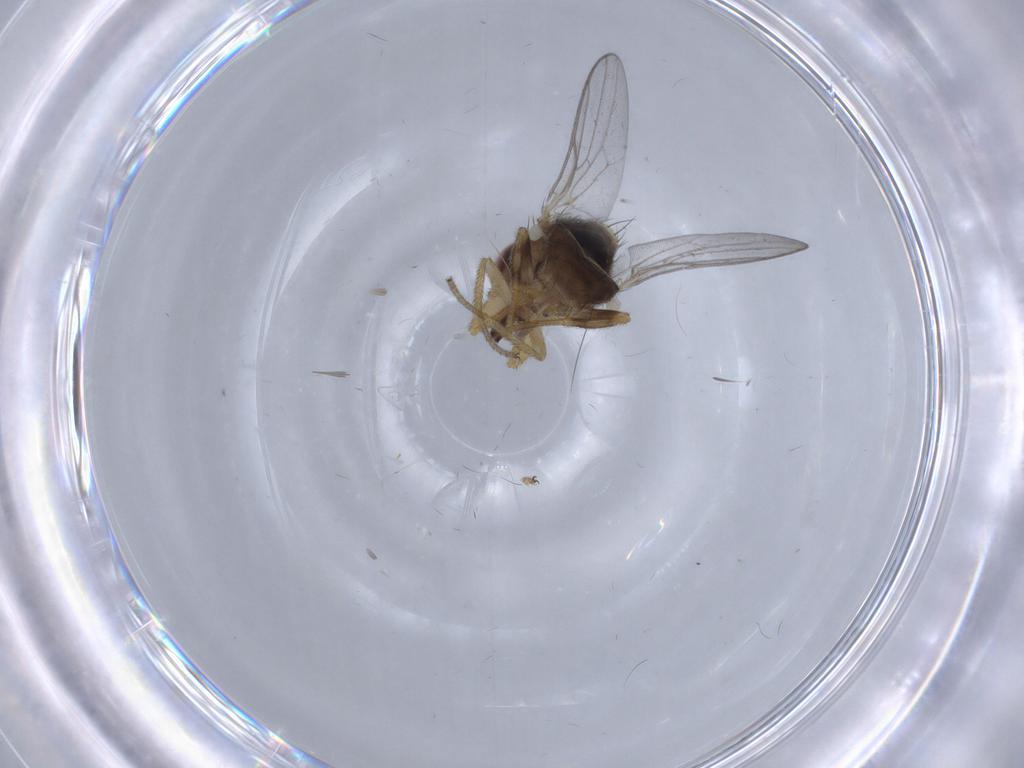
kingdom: Animalia
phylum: Arthropoda
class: Insecta
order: Diptera
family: Chloropidae
